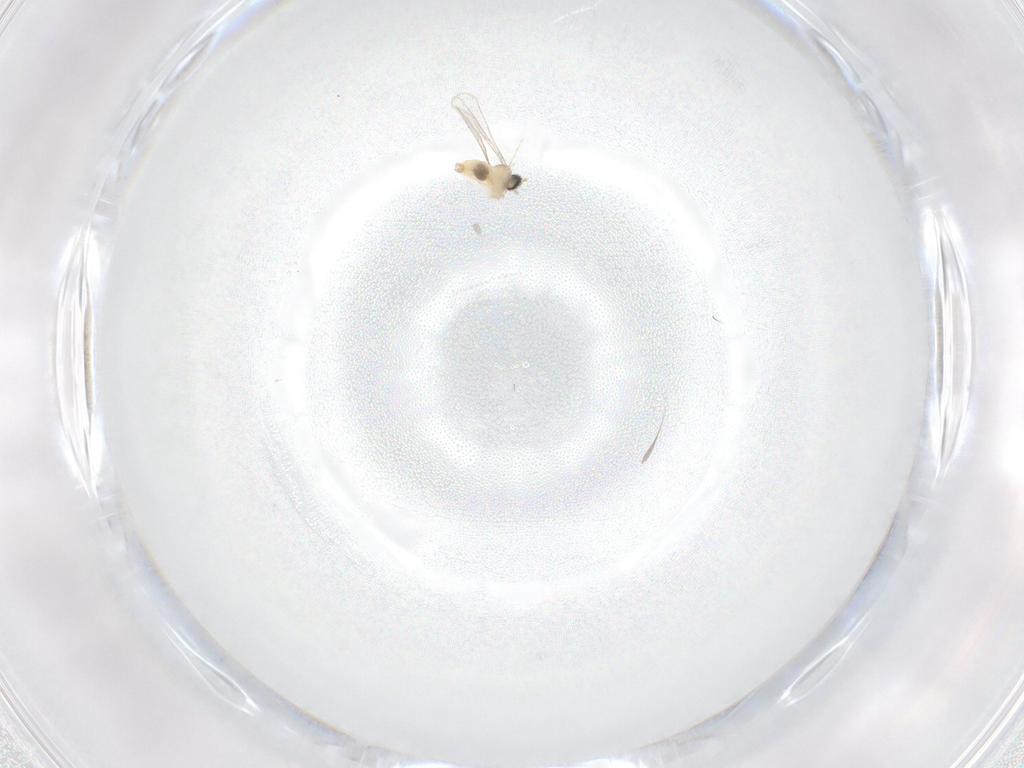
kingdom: Animalia
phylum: Arthropoda
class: Insecta
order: Diptera
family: Cecidomyiidae
